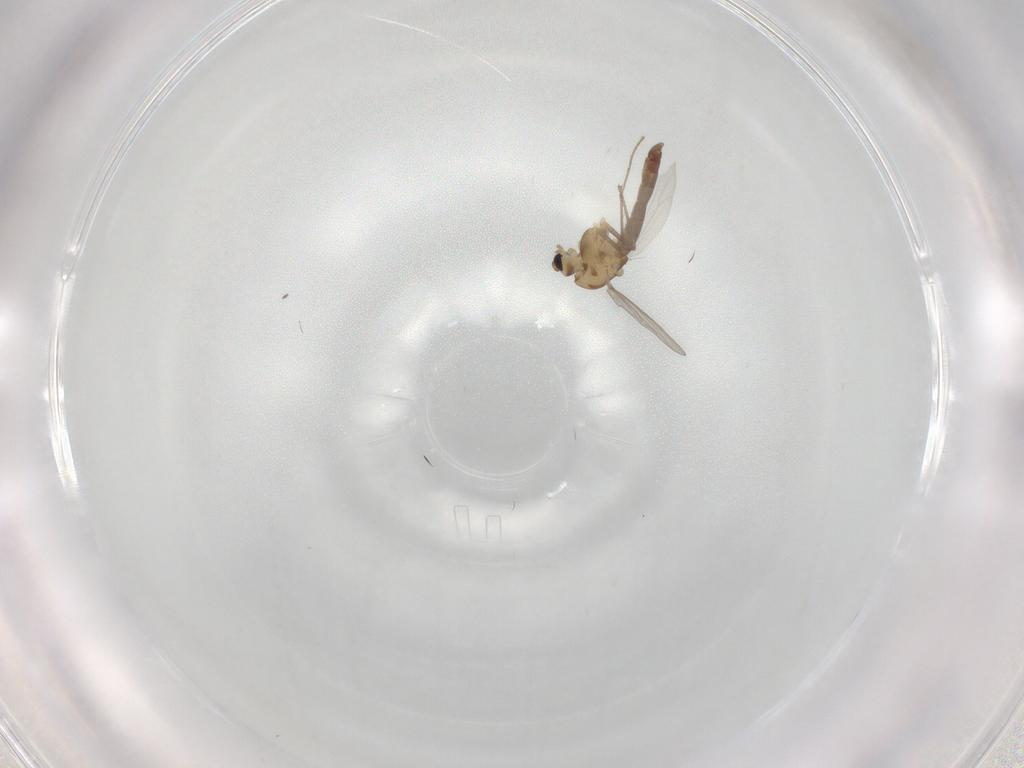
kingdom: Animalia
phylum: Arthropoda
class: Insecta
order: Diptera
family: Chironomidae
